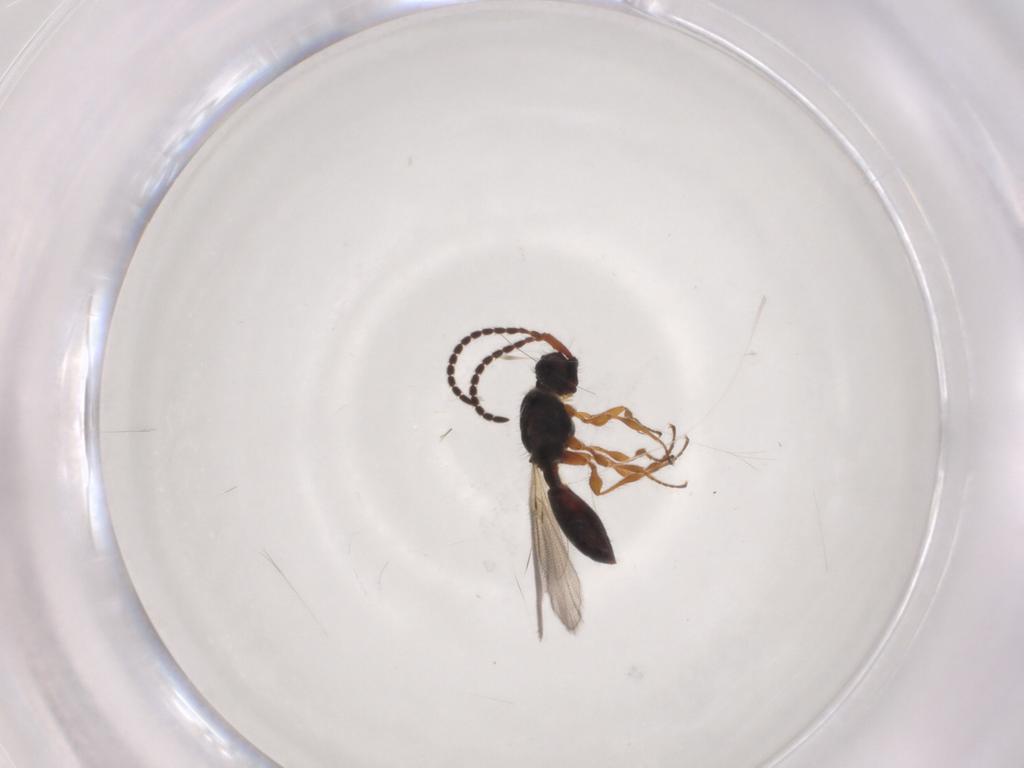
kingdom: Animalia
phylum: Arthropoda
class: Insecta
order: Hymenoptera
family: Diapriidae
